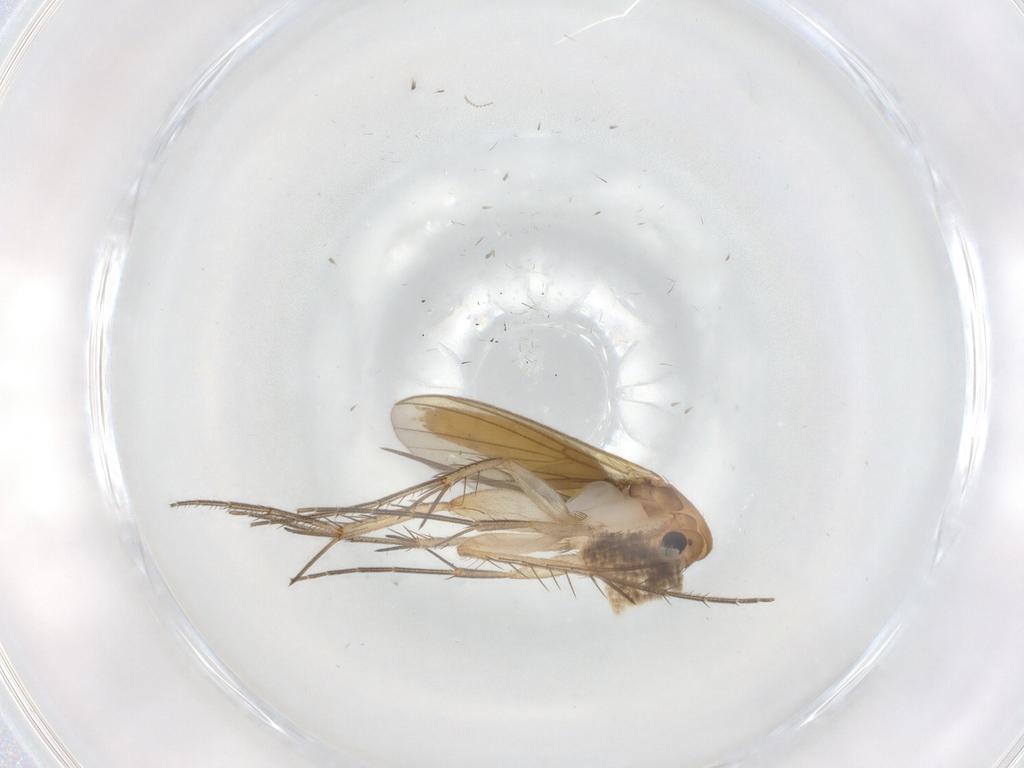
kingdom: Animalia
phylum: Arthropoda
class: Insecta
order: Diptera
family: Mycetophilidae
